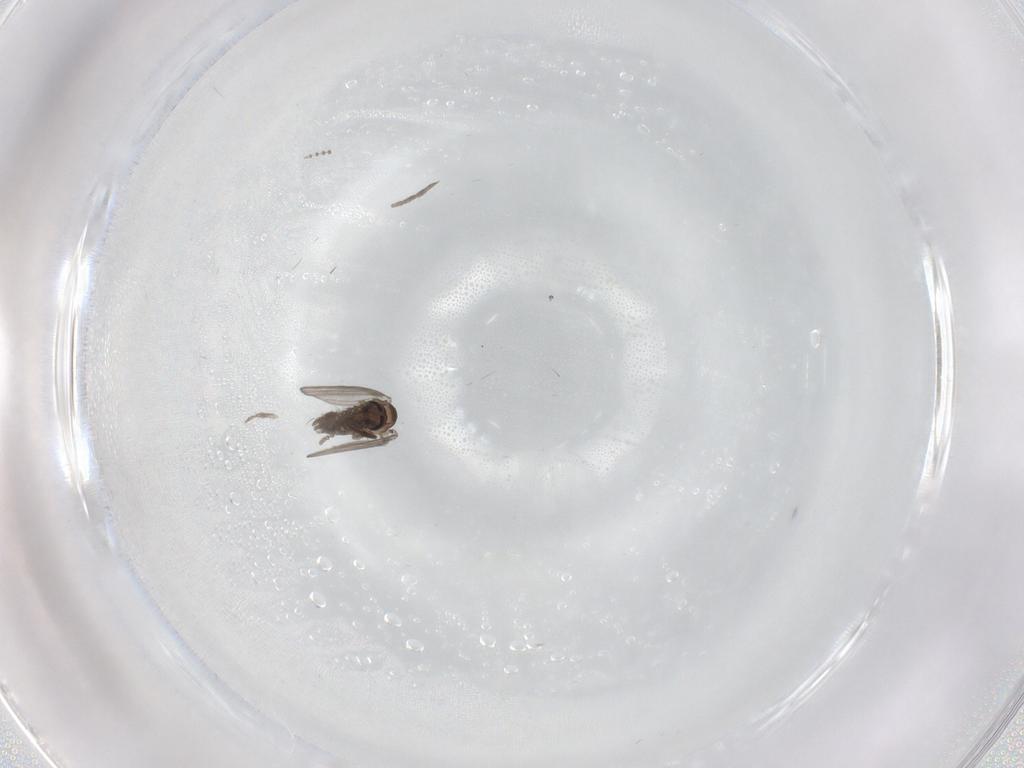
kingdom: Animalia
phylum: Arthropoda
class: Insecta
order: Diptera
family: Psychodidae
